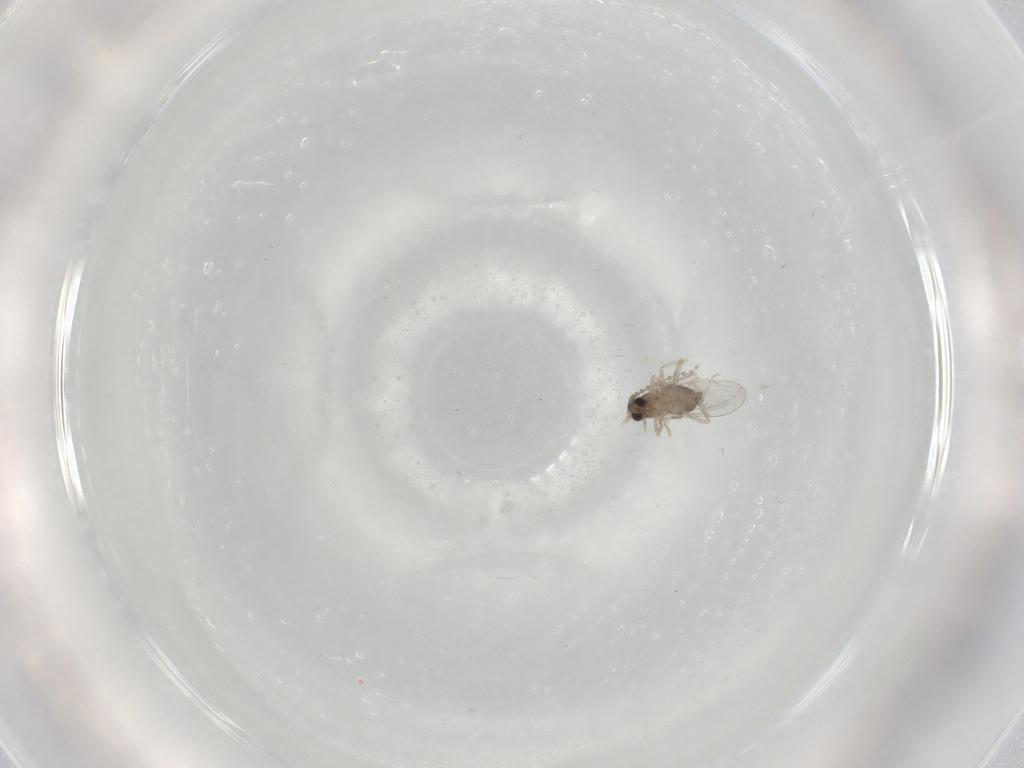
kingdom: Animalia
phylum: Arthropoda
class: Insecta
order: Diptera
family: Cecidomyiidae
